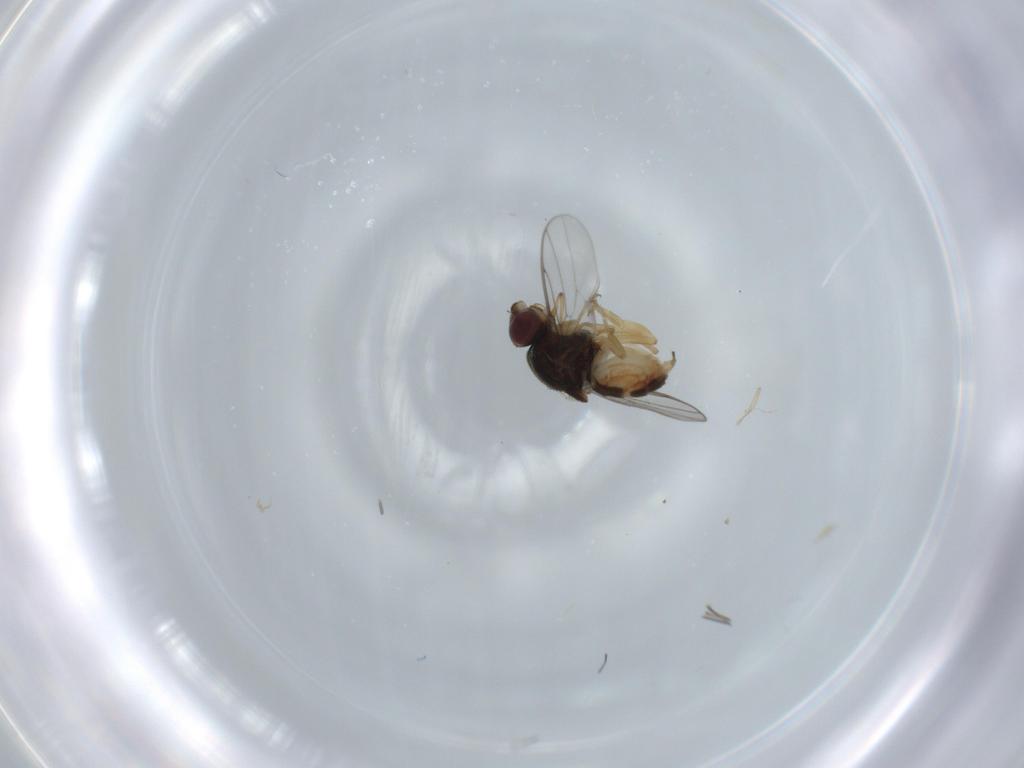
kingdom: Animalia
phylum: Arthropoda
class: Insecta
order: Diptera
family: Chloropidae
